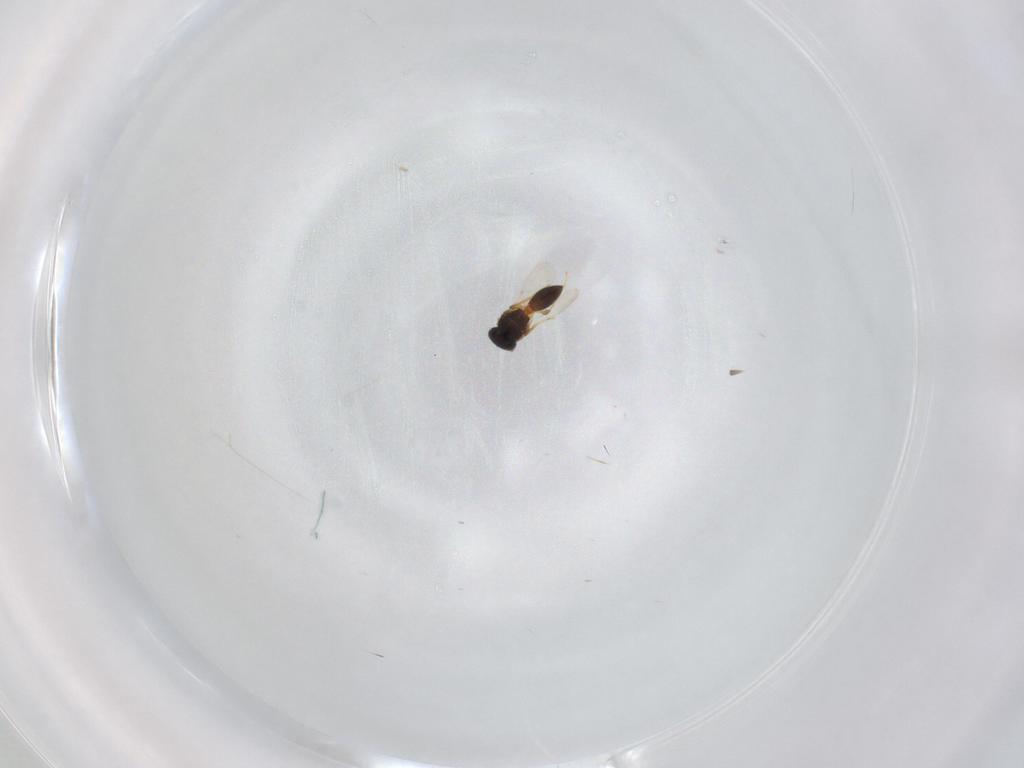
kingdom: Animalia
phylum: Arthropoda
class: Insecta
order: Hymenoptera
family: Platygastridae
